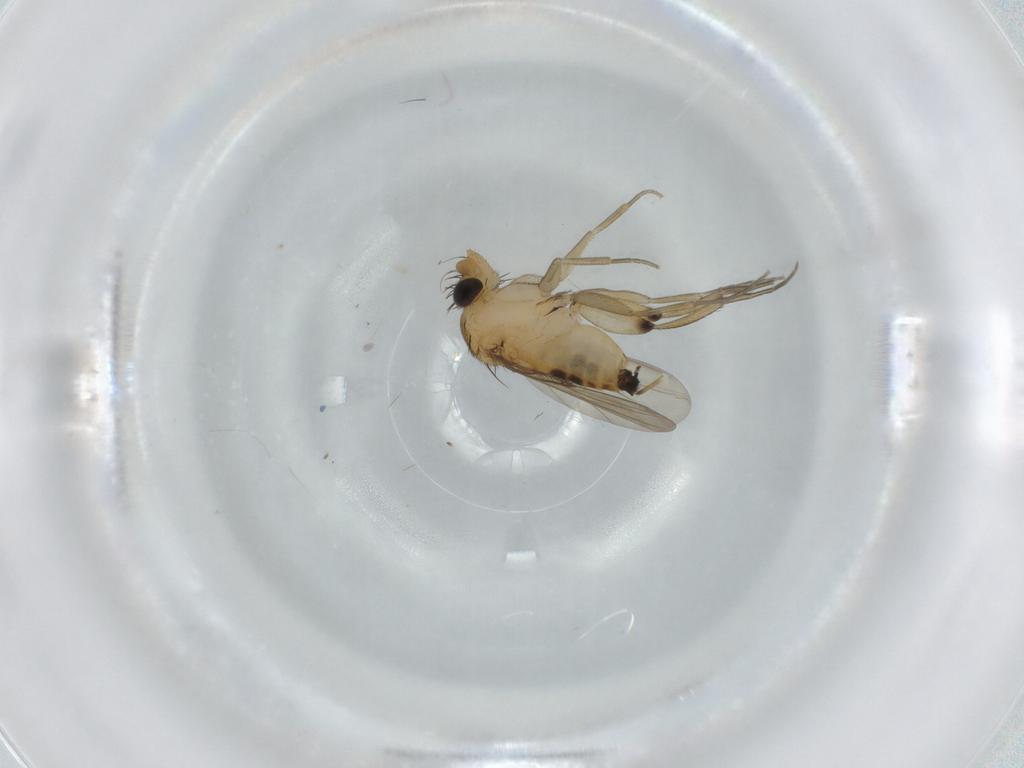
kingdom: Animalia
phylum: Arthropoda
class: Insecta
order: Diptera
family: Phoridae
